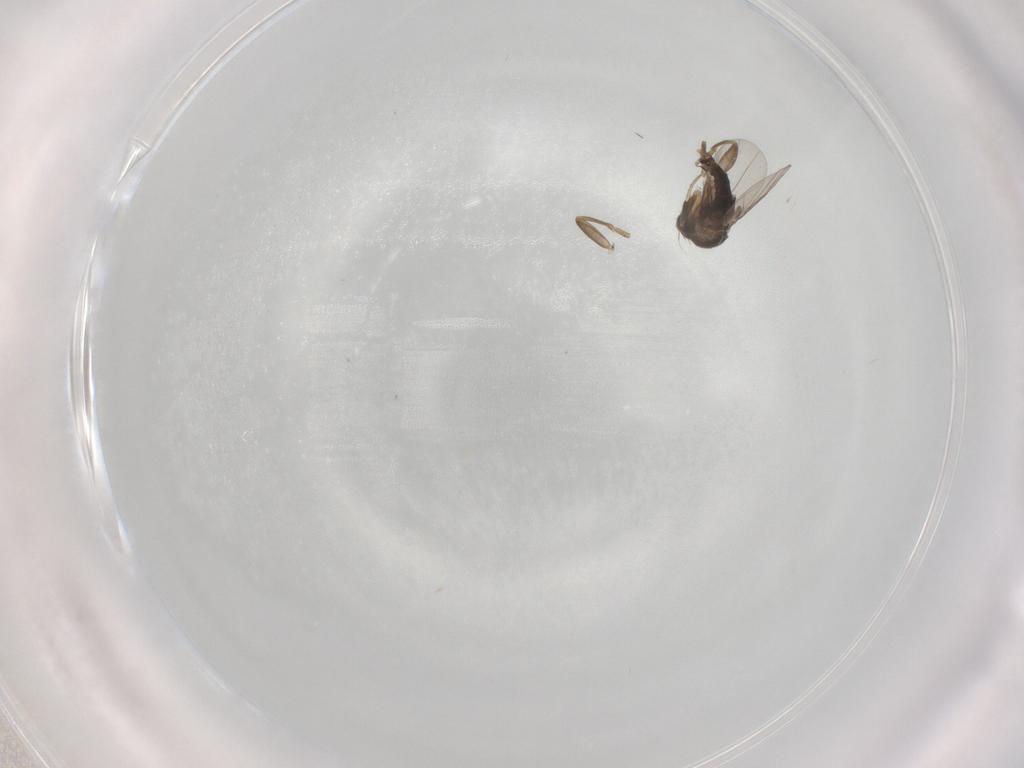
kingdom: Animalia
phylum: Arthropoda
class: Insecta
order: Diptera
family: Phoridae
